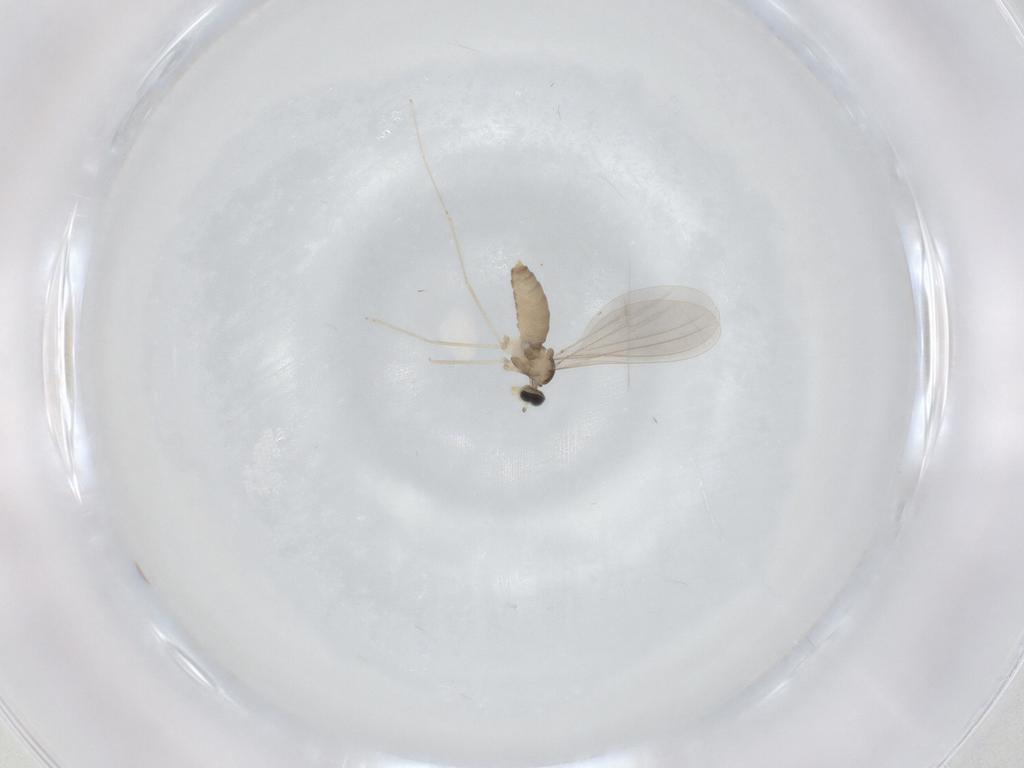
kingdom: Animalia
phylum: Arthropoda
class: Insecta
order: Diptera
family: Cecidomyiidae
